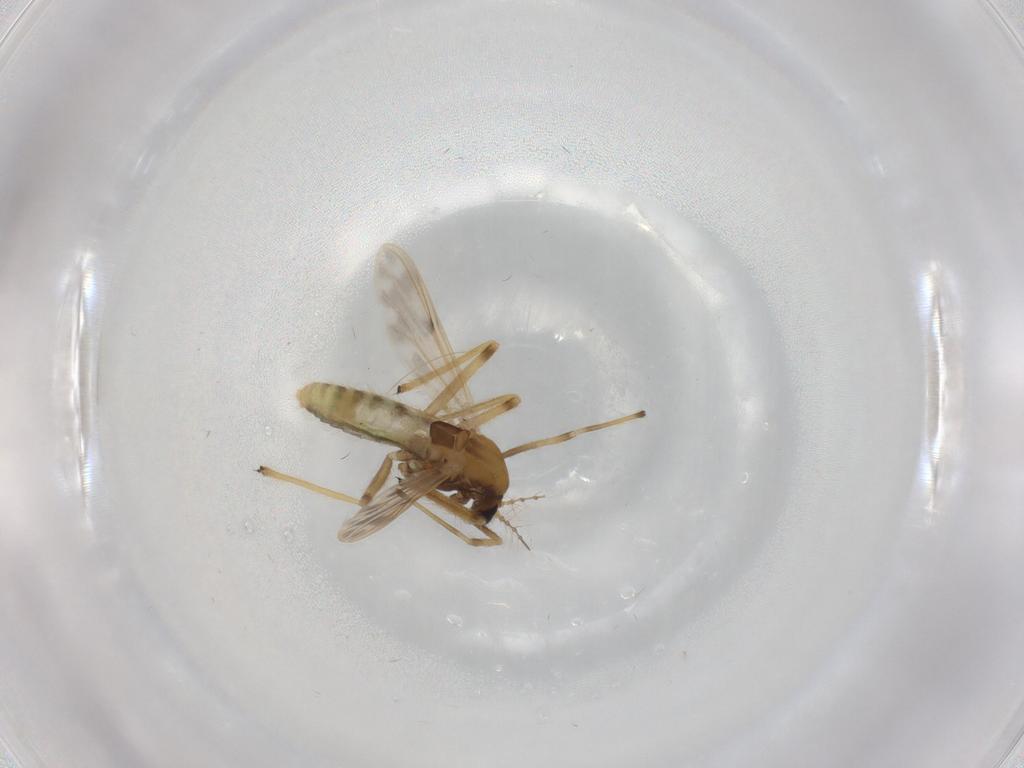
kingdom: Animalia
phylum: Arthropoda
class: Insecta
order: Diptera
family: Chironomidae
